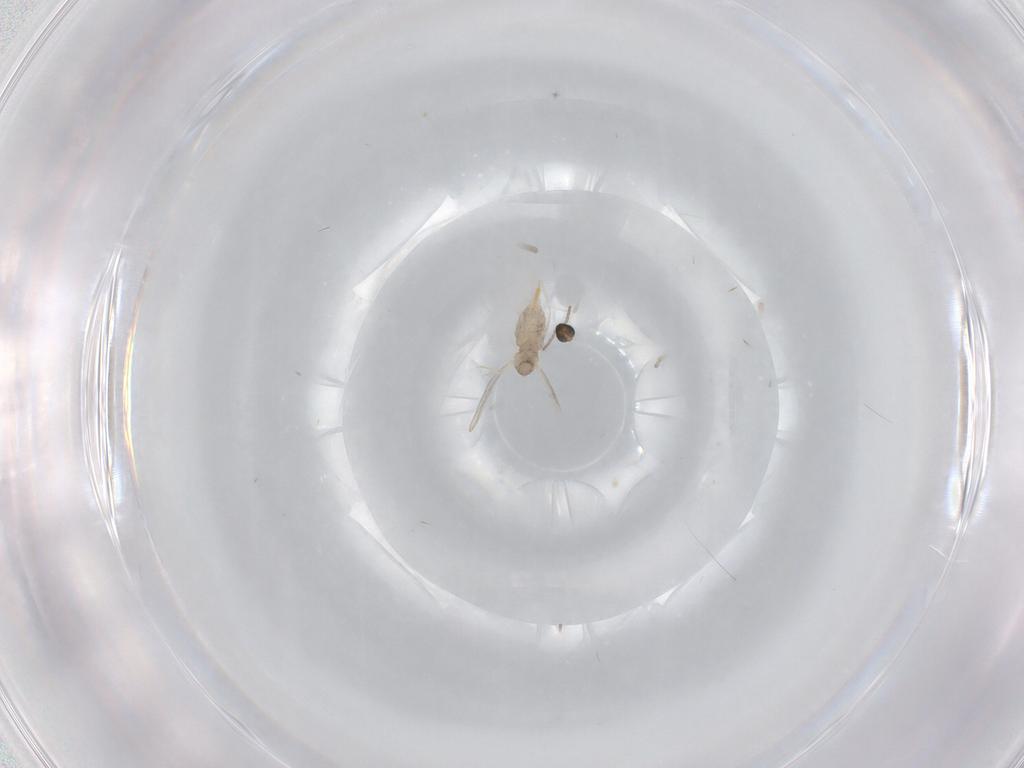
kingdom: Animalia
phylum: Arthropoda
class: Insecta
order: Diptera
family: Cecidomyiidae
